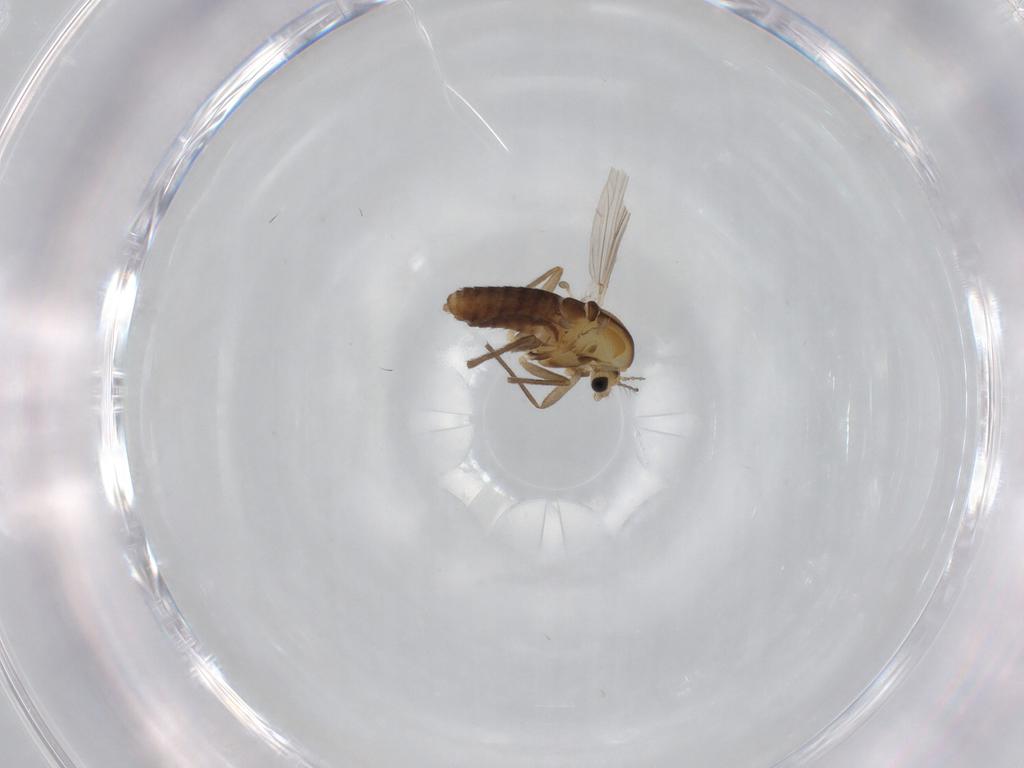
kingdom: Animalia
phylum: Arthropoda
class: Insecta
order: Diptera
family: Chironomidae
